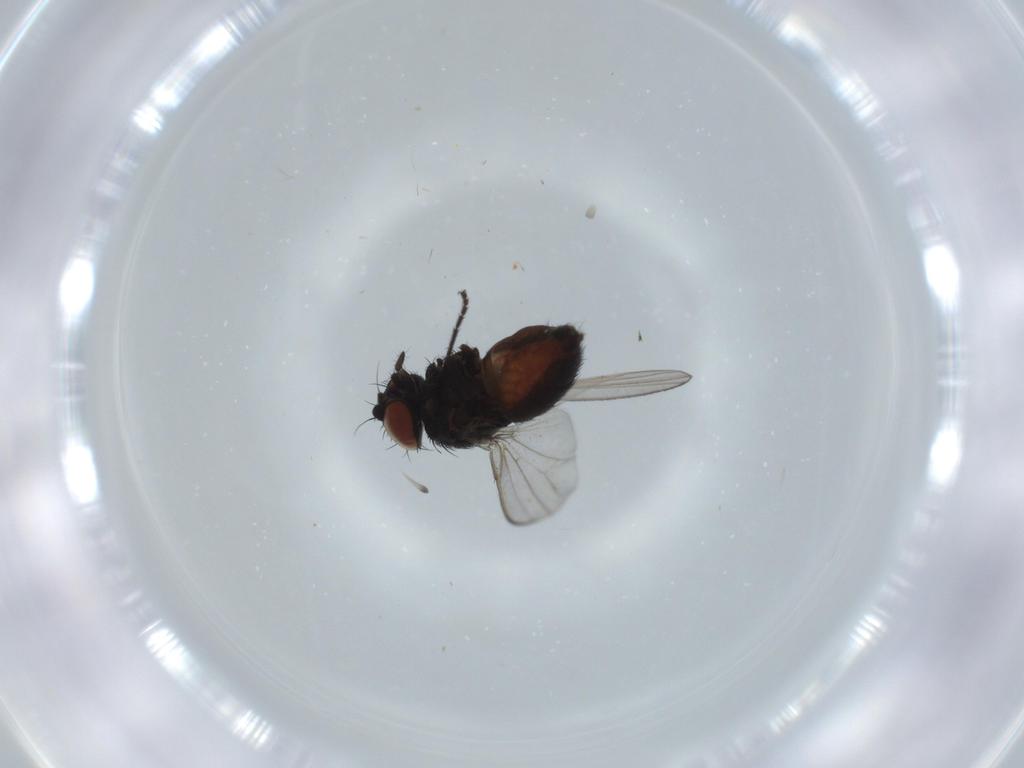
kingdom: Animalia
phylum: Arthropoda
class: Insecta
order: Diptera
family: Milichiidae
